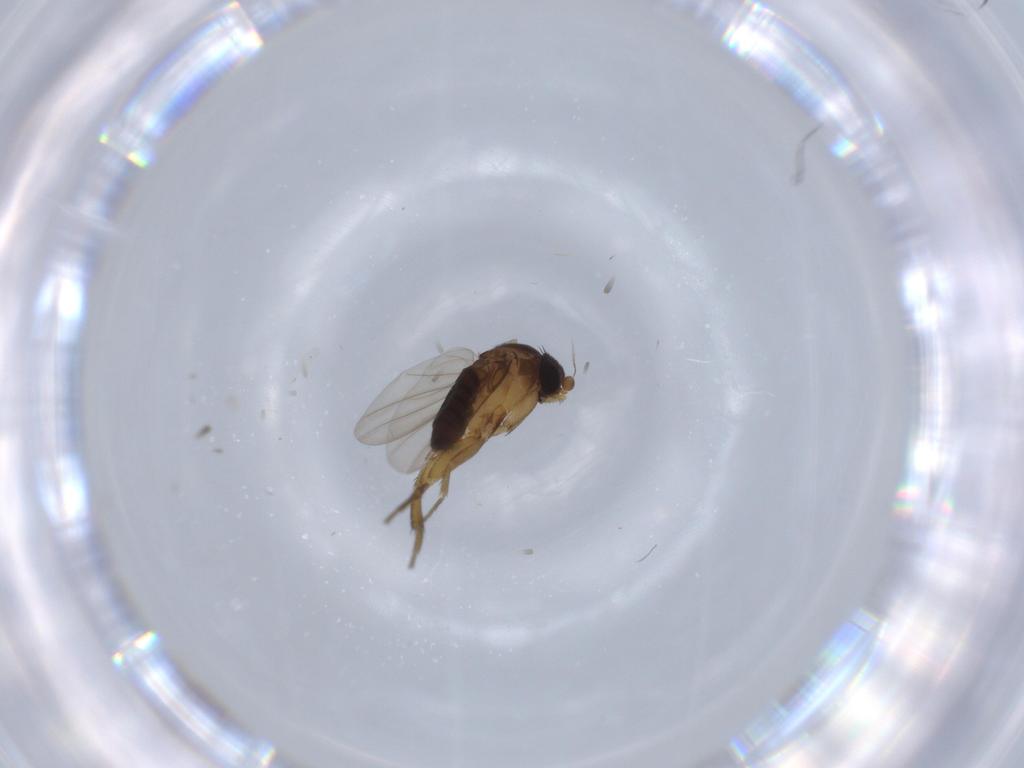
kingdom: Animalia
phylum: Arthropoda
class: Insecta
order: Diptera
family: Phoridae
